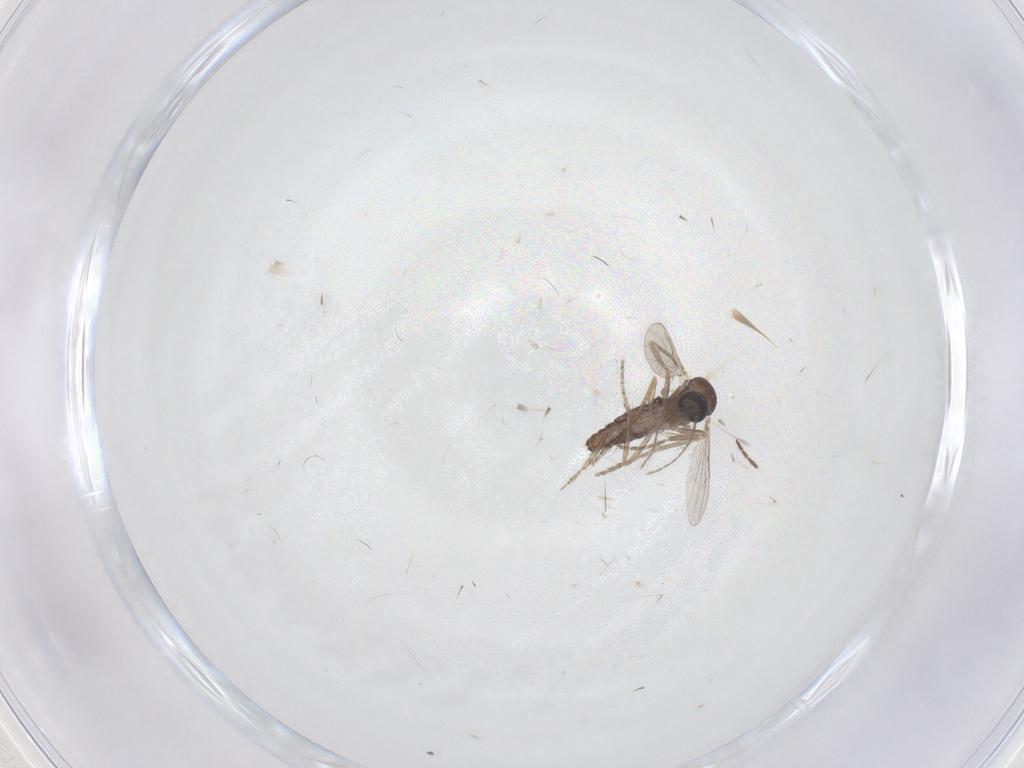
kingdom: Animalia
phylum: Arthropoda
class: Insecta
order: Diptera
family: Ceratopogonidae
